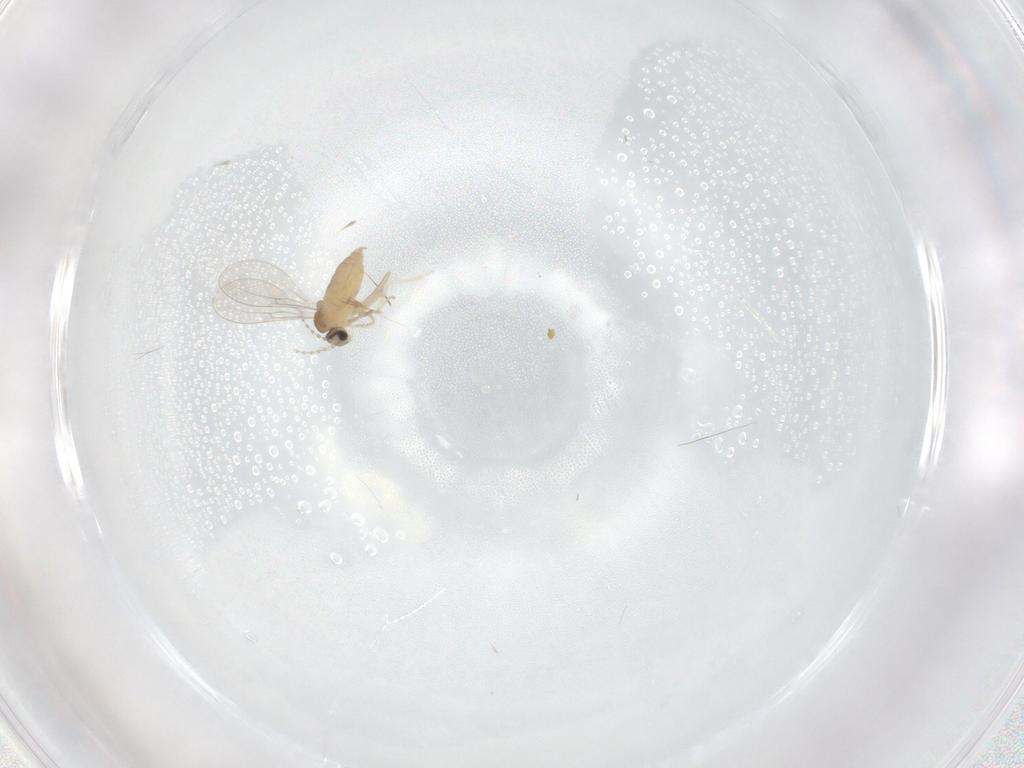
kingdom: Animalia
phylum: Arthropoda
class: Insecta
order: Diptera
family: Cecidomyiidae
